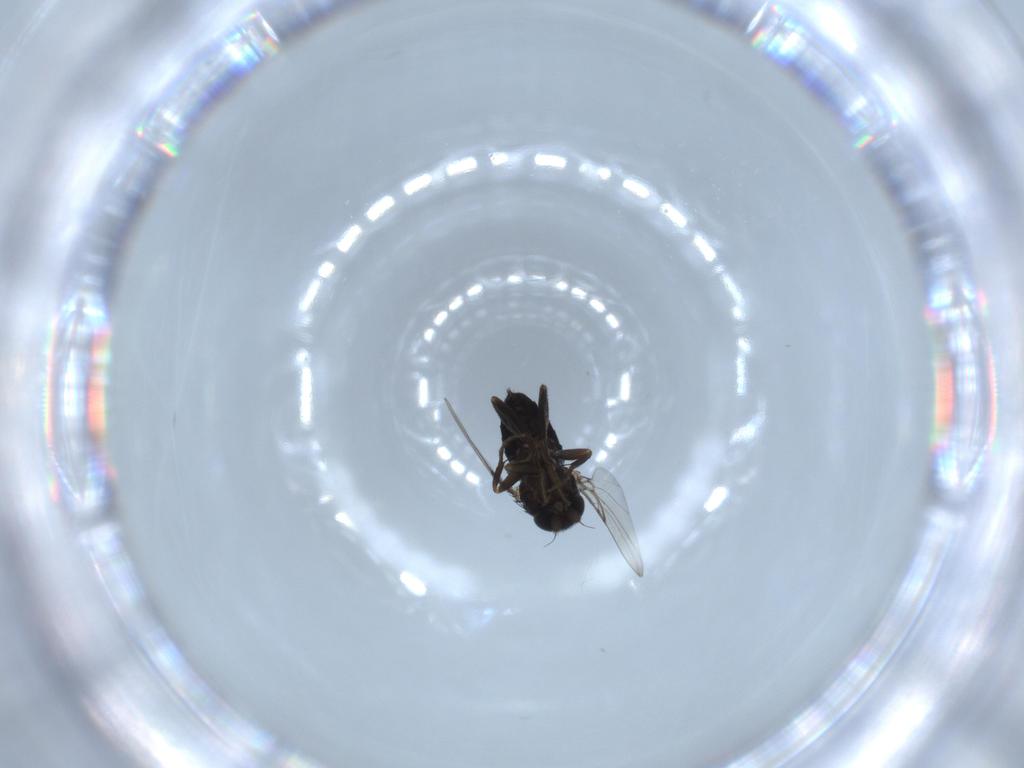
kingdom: Animalia
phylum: Arthropoda
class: Insecta
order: Diptera
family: Phoridae
